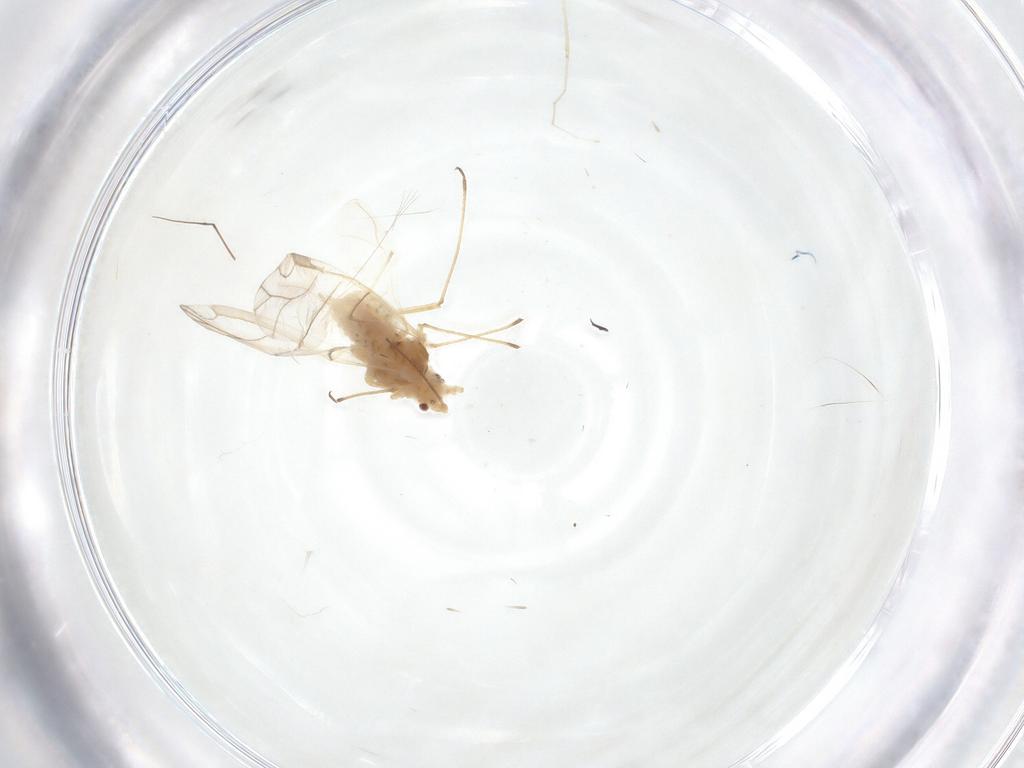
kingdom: Animalia
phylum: Arthropoda
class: Insecta
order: Hemiptera
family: Aphididae
